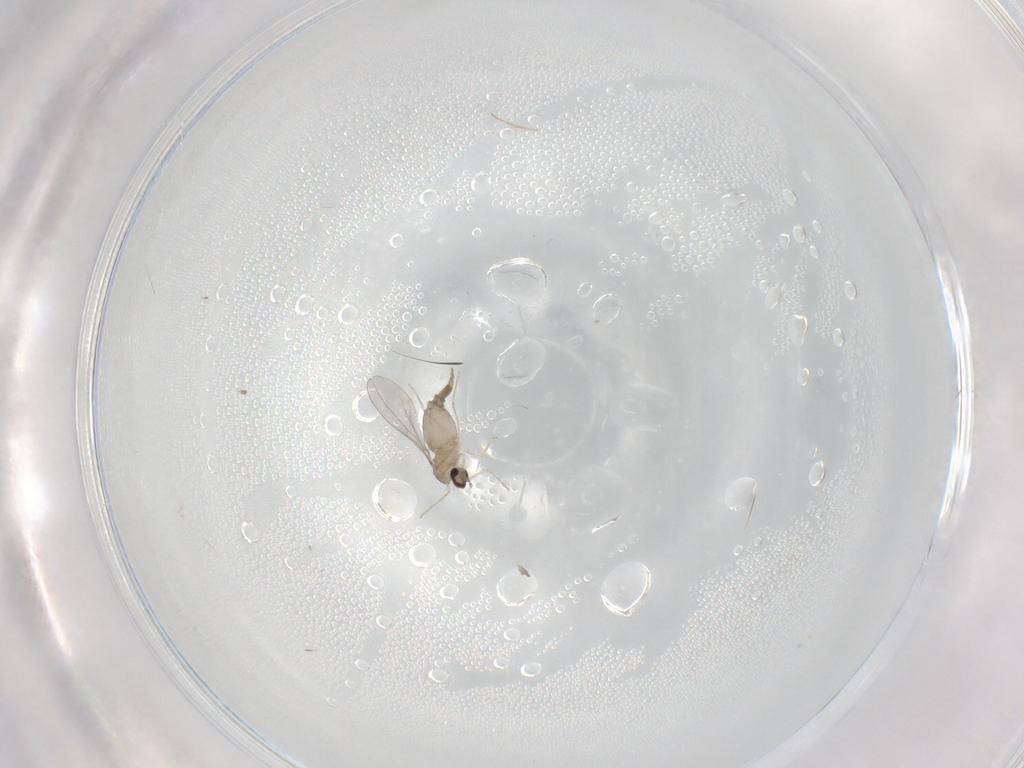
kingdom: Animalia
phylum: Arthropoda
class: Insecta
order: Diptera
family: Cecidomyiidae
